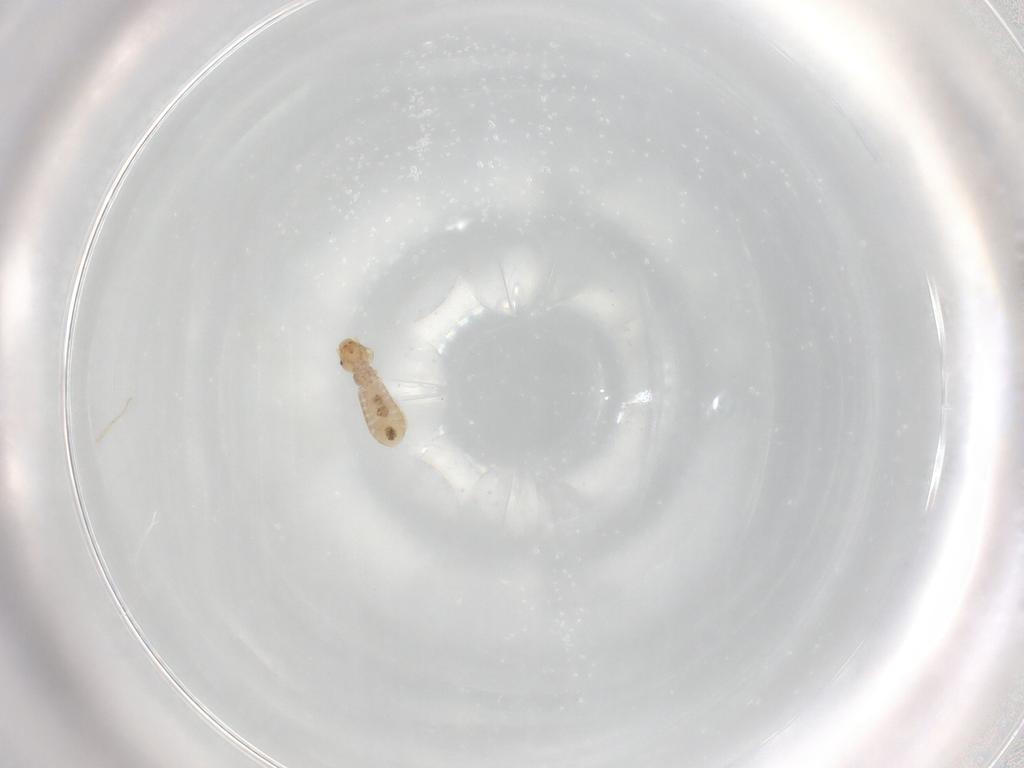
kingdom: Animalia
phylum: Arthropoda
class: Insecta
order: Psocodea
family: Liposcelididae
